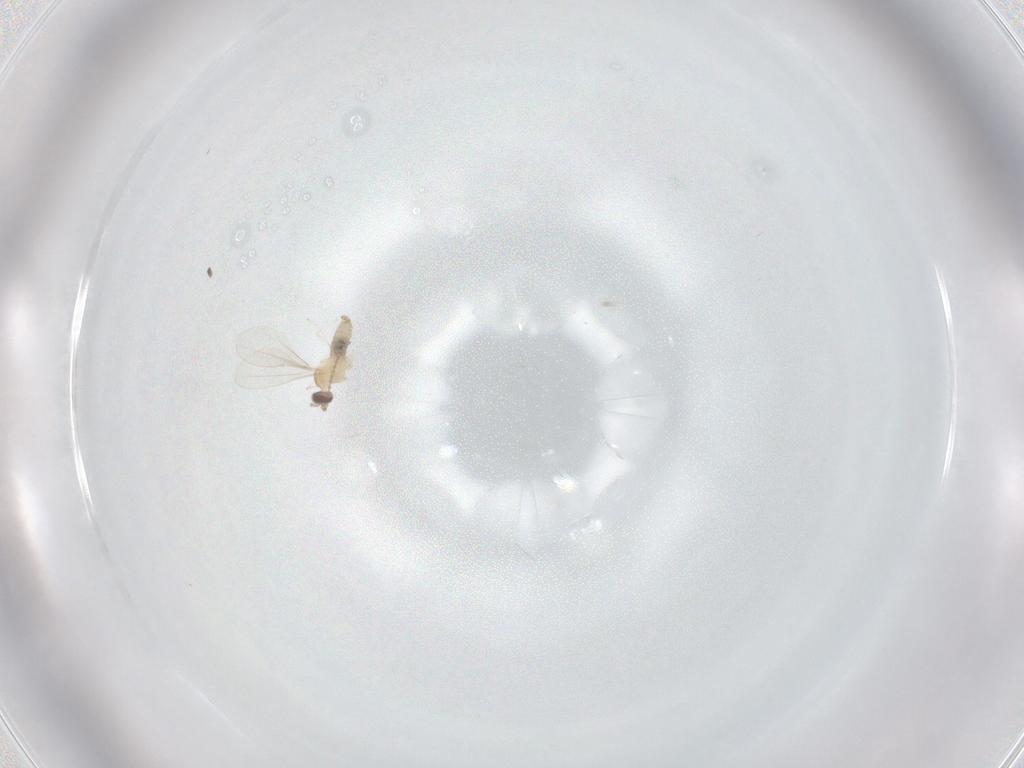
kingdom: Animalia
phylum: Arthropoda
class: Insecta
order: Diptera
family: Cecidomyiidae
